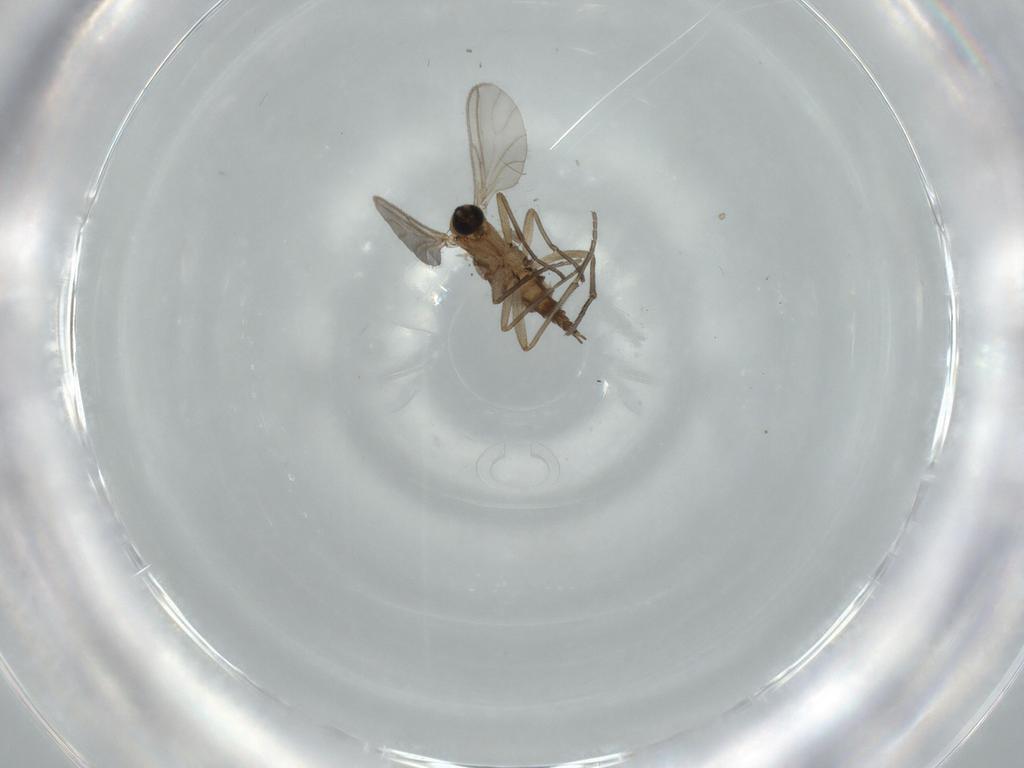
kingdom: Animalia
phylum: Arthropoda
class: Insecta
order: Diptera
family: Sciaridae
